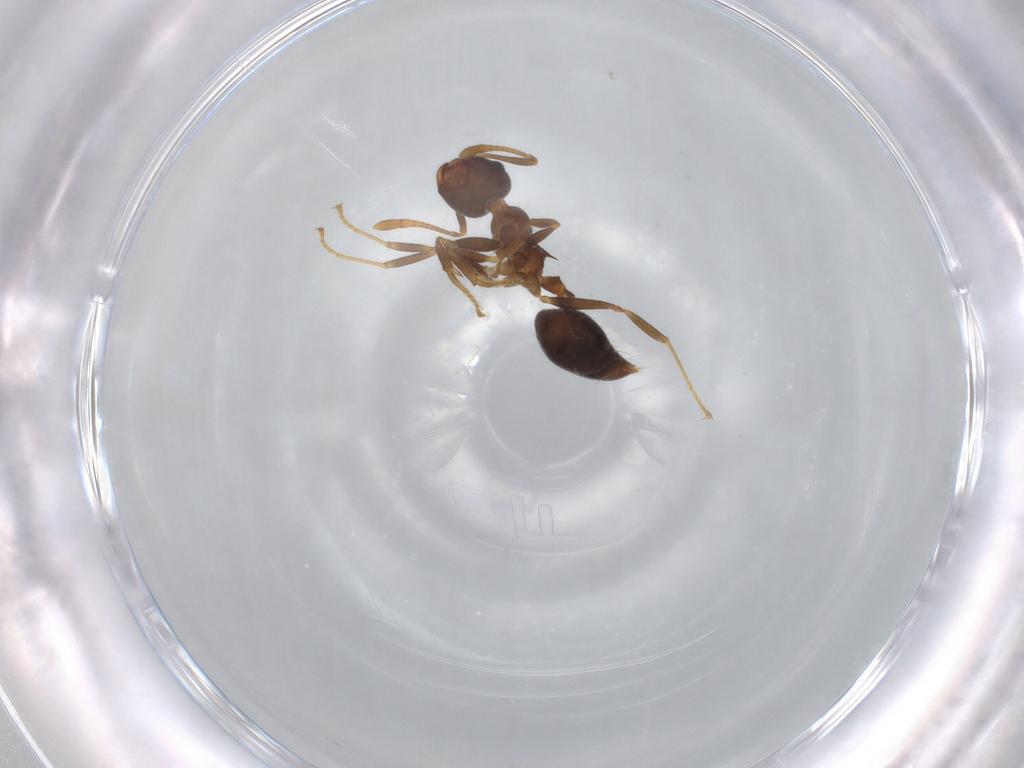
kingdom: Animalia
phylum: Arthropoda
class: Insecta
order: Hymenoptera
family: Formicidae
